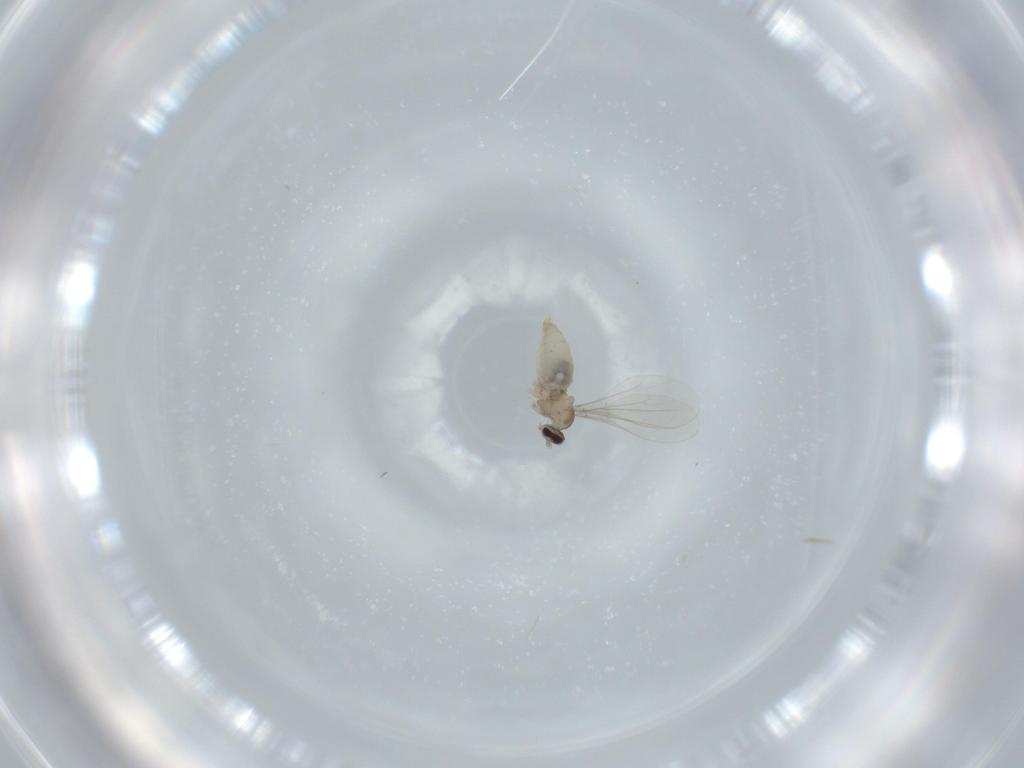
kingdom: Animalia
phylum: Arthropoda
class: Insecta
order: Diptera
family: Cecidomyiidae
